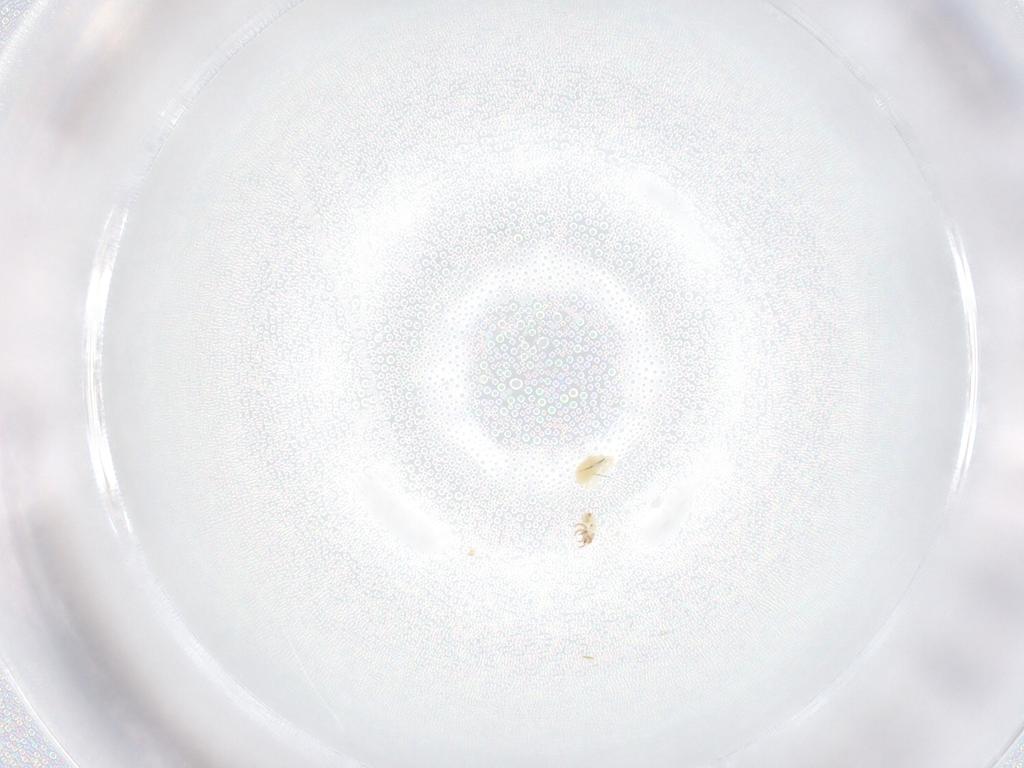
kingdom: Animalia
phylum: Arthropoda
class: Arachnida
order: Sarcoptiformes
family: Humerobatidae
